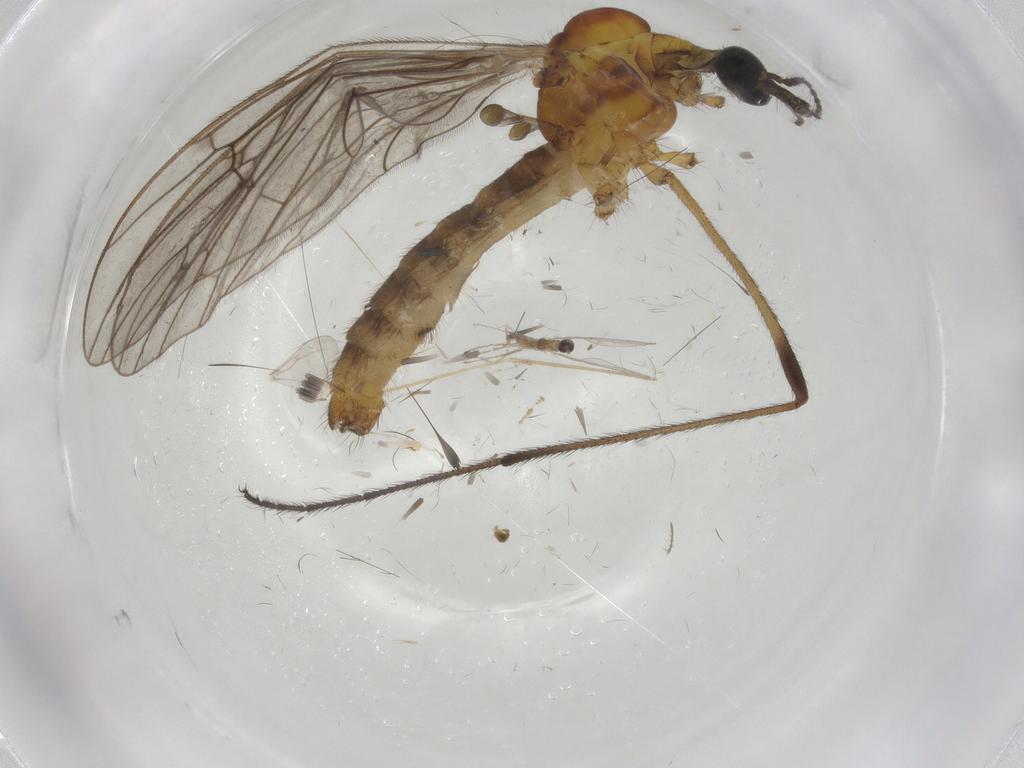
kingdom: Animalia
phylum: Arthropoda
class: Insecta
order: Diptera
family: Limoniidae
